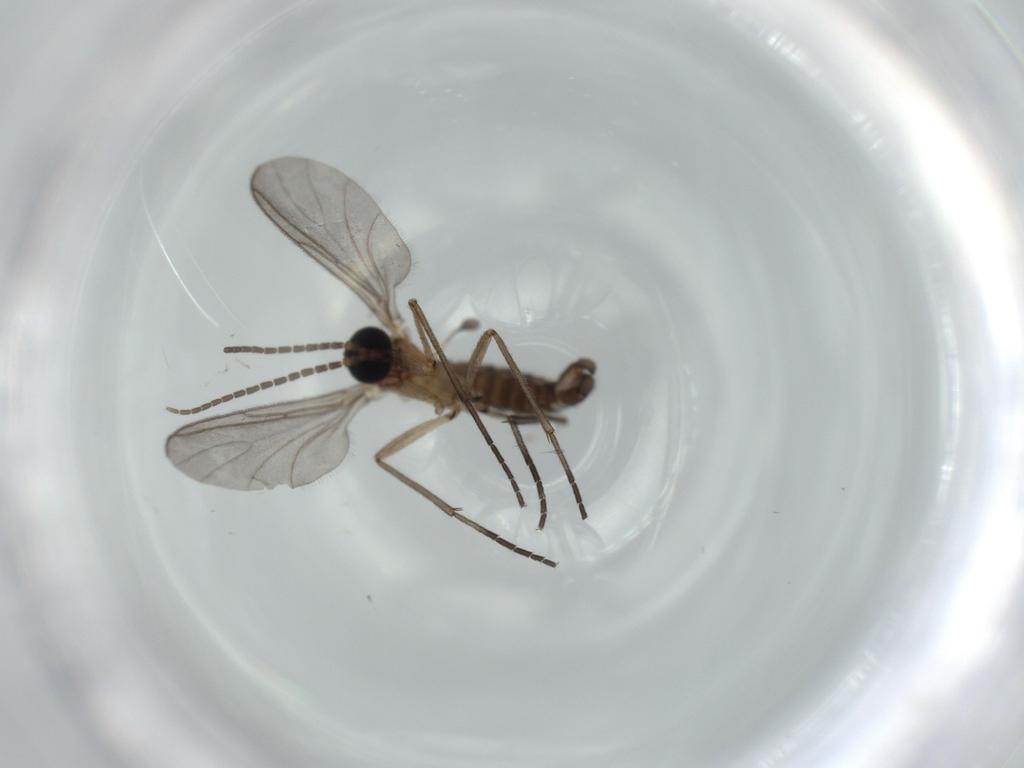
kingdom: Animalia
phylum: Arthropoda
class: Insecta
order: Diptera
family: Sciaridae
